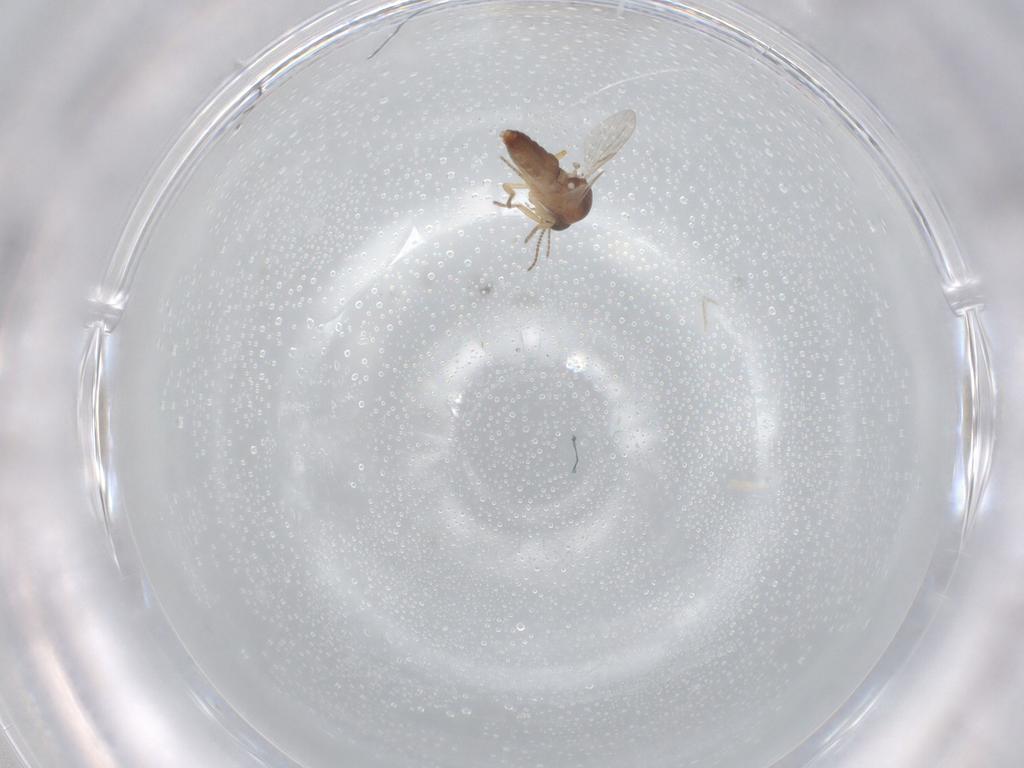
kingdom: Animalia
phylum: Arthropoda
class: Insecta
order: Diptera
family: Ceratopogonidae
